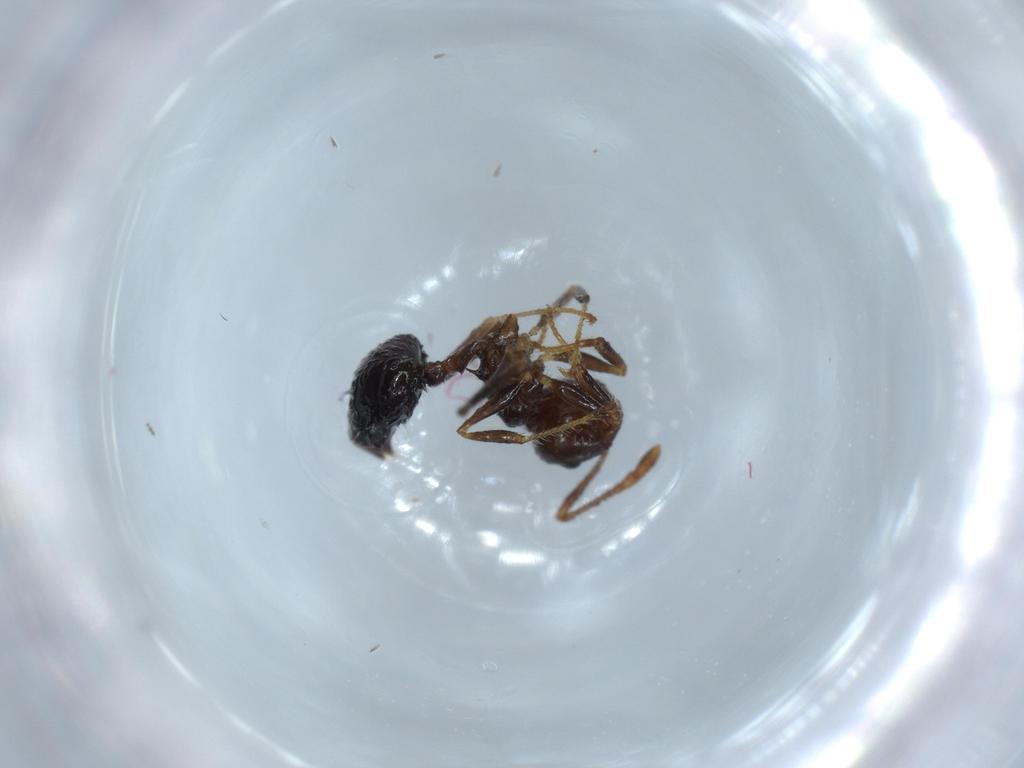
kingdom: Animalia
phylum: Arthropoda
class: Insecta
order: Hymenoptera
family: Formicidae
